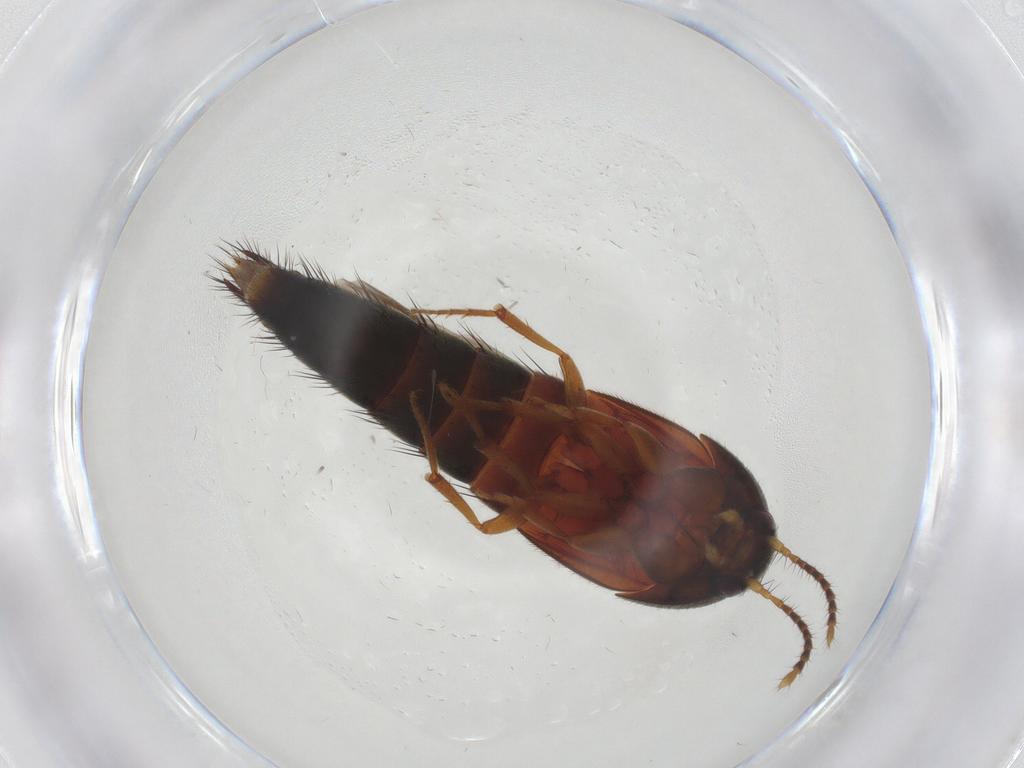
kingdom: Animalia
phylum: Arthropoda
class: Insecta
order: Coleoptera
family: Staphylinidae
